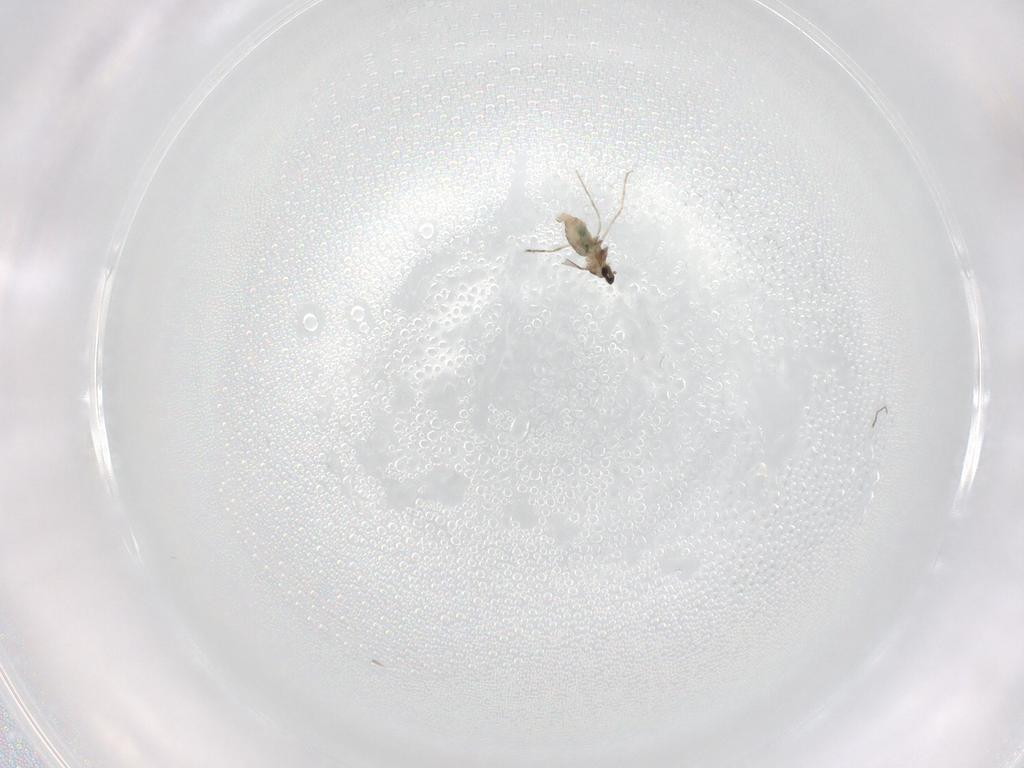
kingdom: Animalia
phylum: Arthropoda
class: Insecta
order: Diptera
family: Cecidomyiidae
